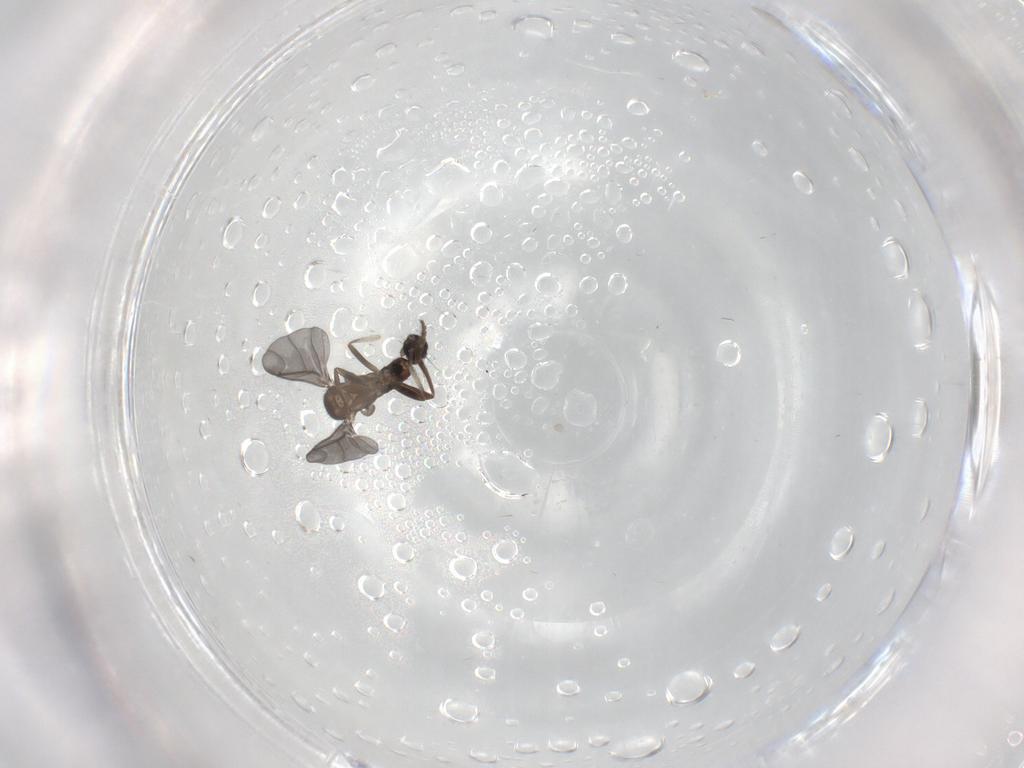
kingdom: Animalia
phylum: Arthropoda
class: Insecta
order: Diptera
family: Phoridae
